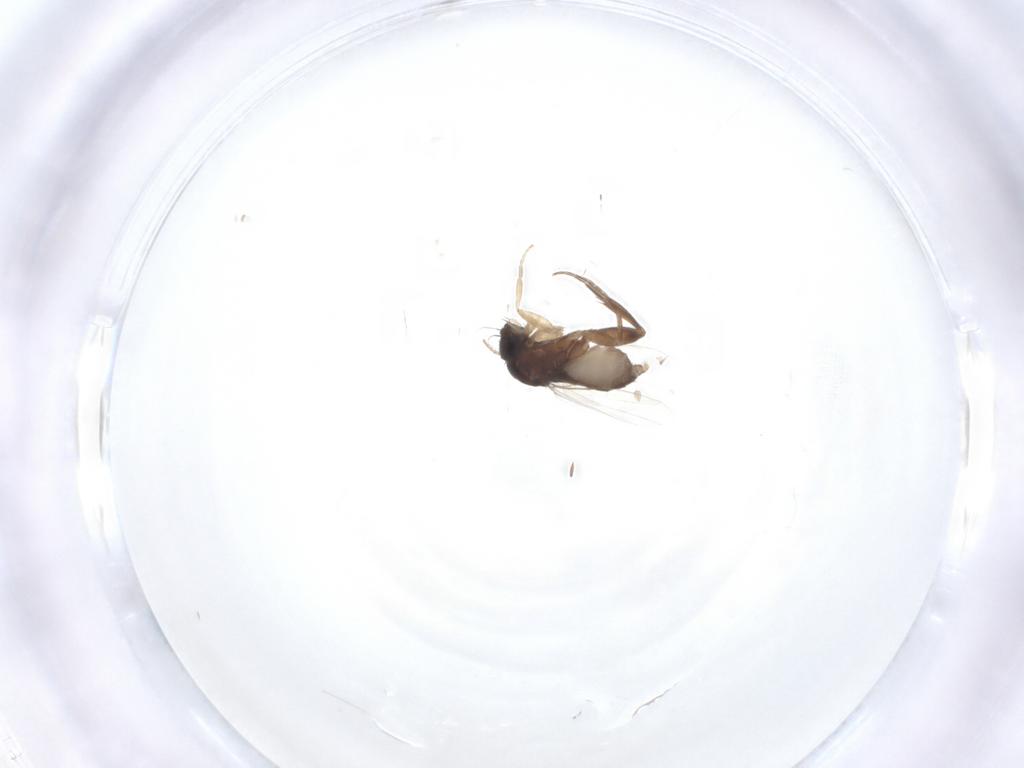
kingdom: Animalia
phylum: Arthropoda
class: Insecta
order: Diptera
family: Phoridae
